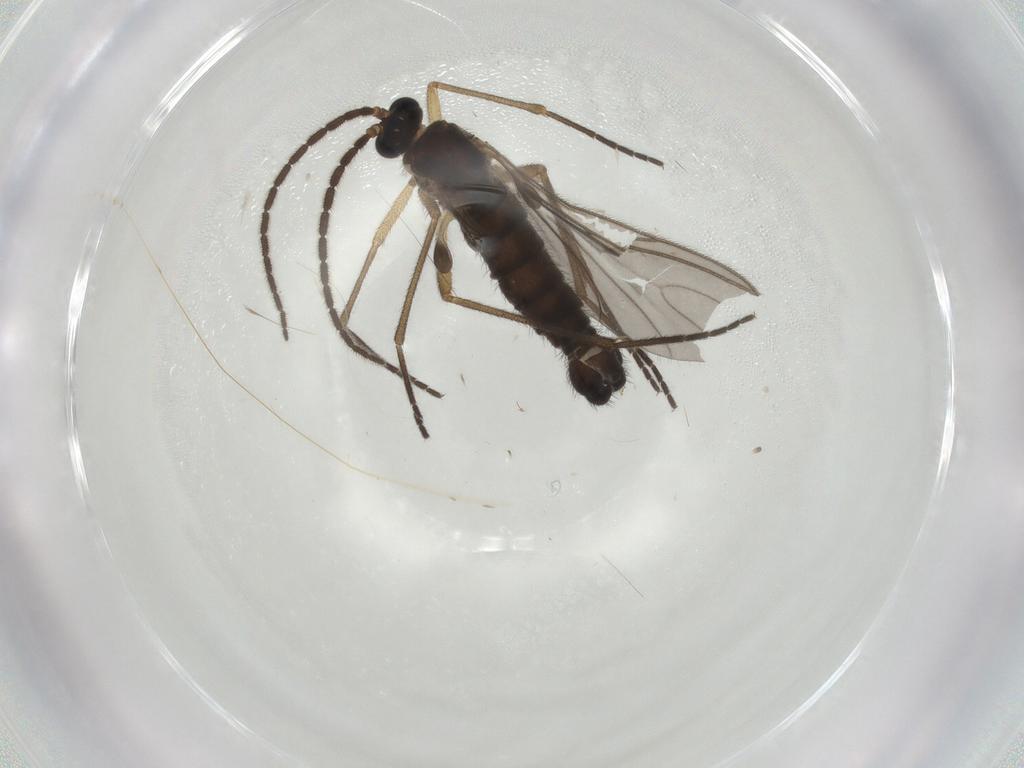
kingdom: Animalia
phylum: Arthropoda
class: Insecta
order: Diptera
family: Sciaridae
